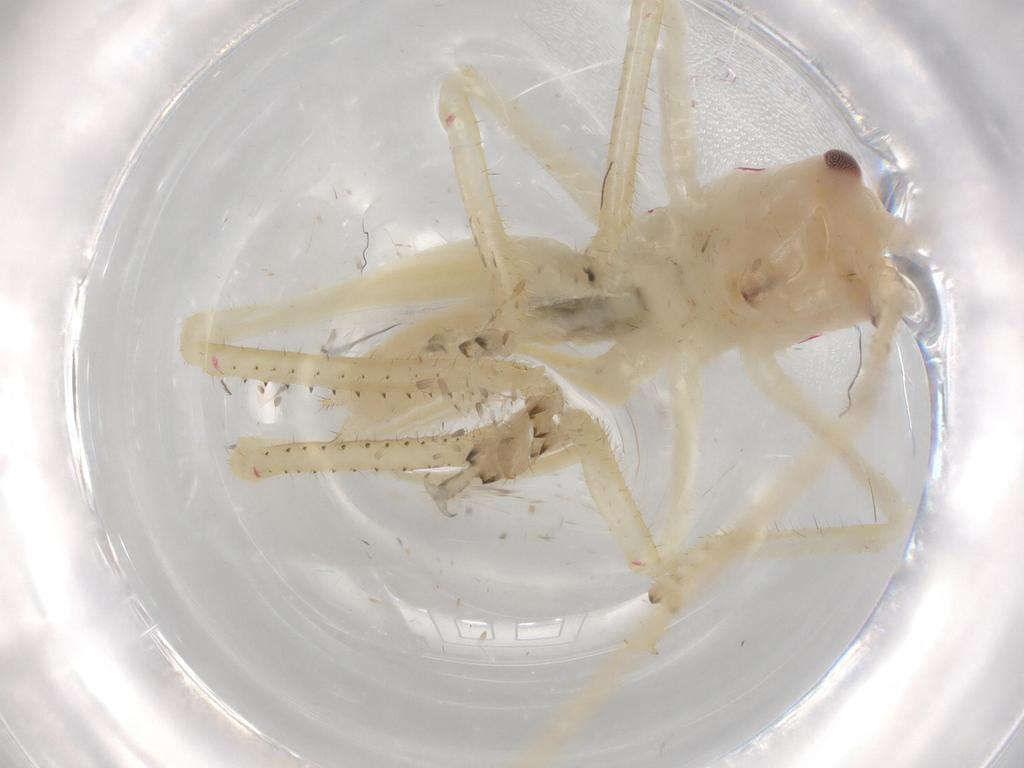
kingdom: Animalia
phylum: Arthropoda
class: Insecta
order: Orthoptera
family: Tettigoniidae
